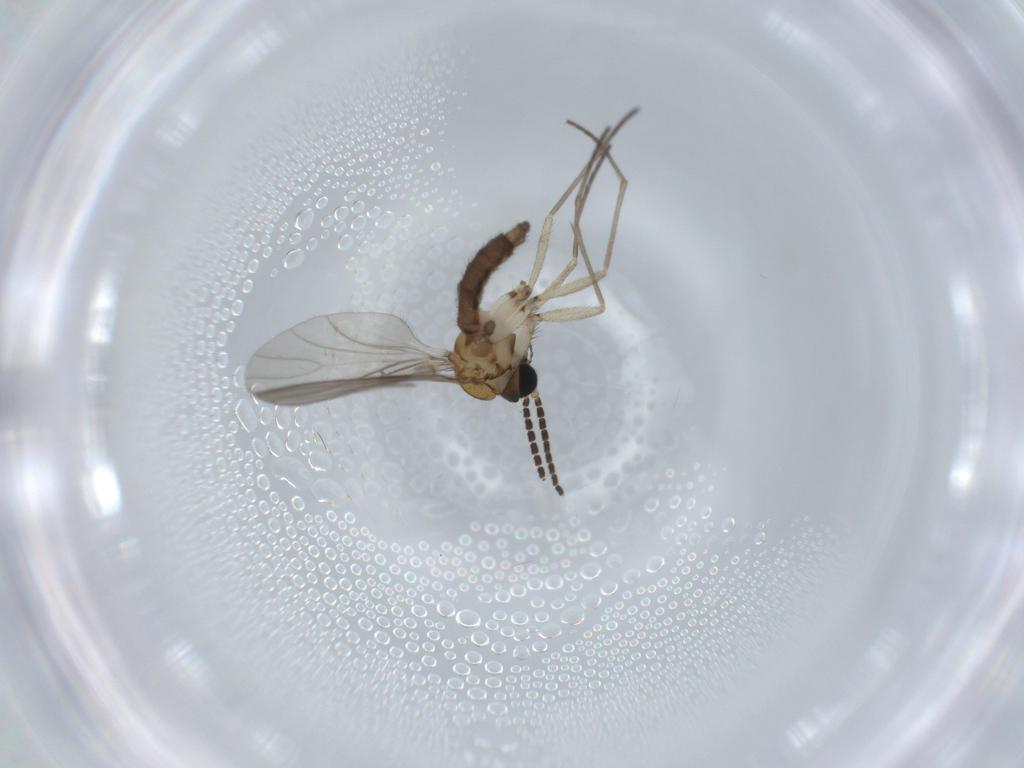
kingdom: Animalia
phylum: Arthropoda
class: Insecta
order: Diptera
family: Sciaridae
